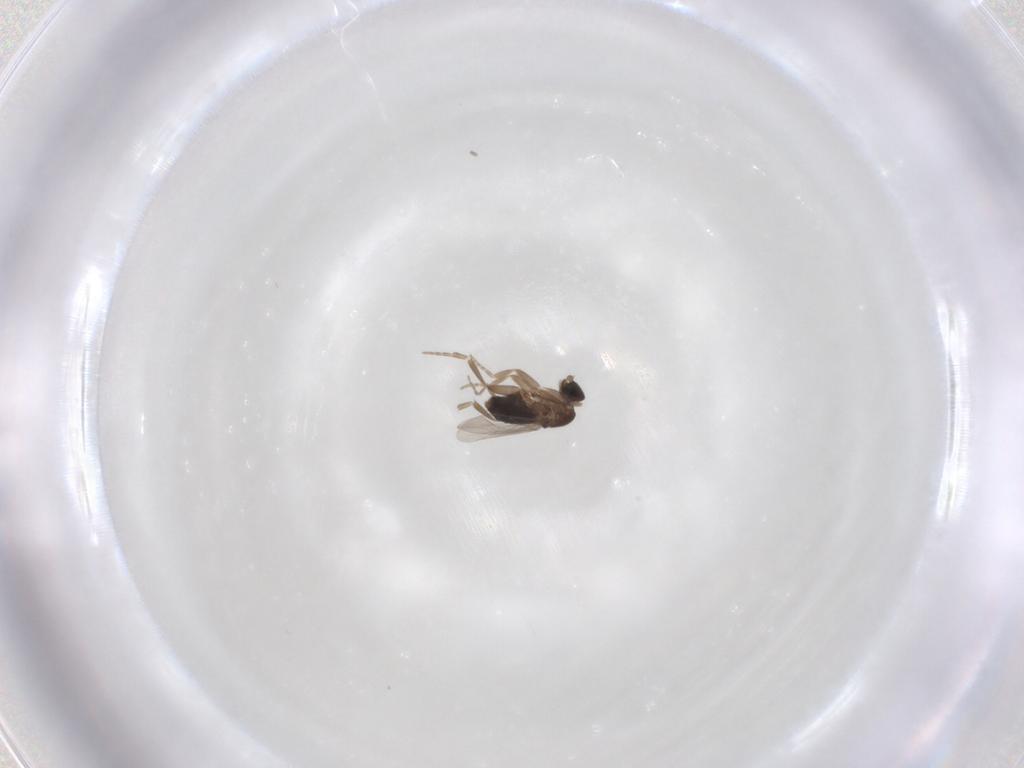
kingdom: Animalia
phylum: Arthropoda
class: Insecta
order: Diptera
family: Phoridae
